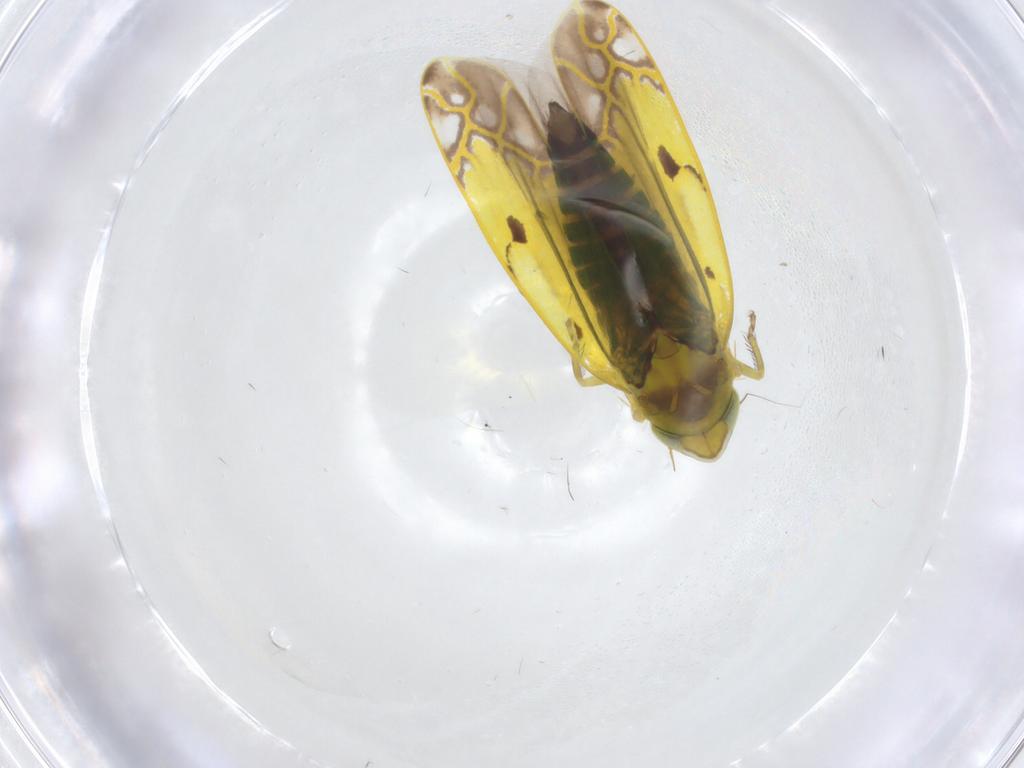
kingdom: Animalia
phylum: Arthropoda
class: Insecta
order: Hemiptera
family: Cicadellidae
